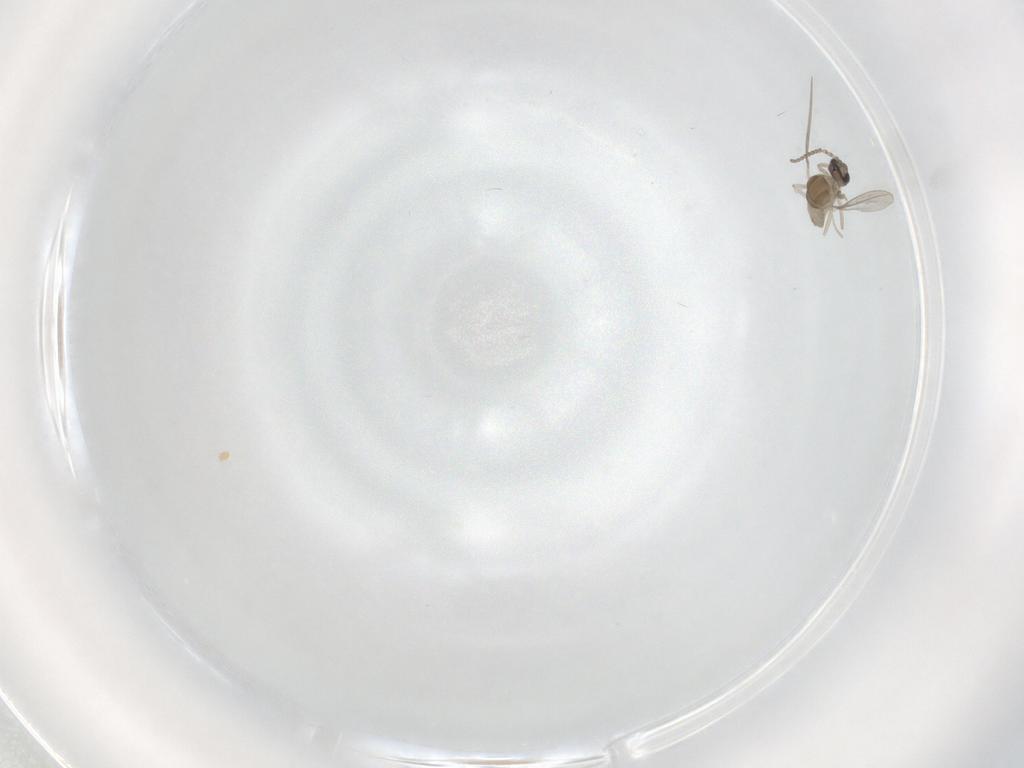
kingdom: Animalia
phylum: Arthropoda
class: Insecta
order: Diptera
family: Cecidomyiidae
